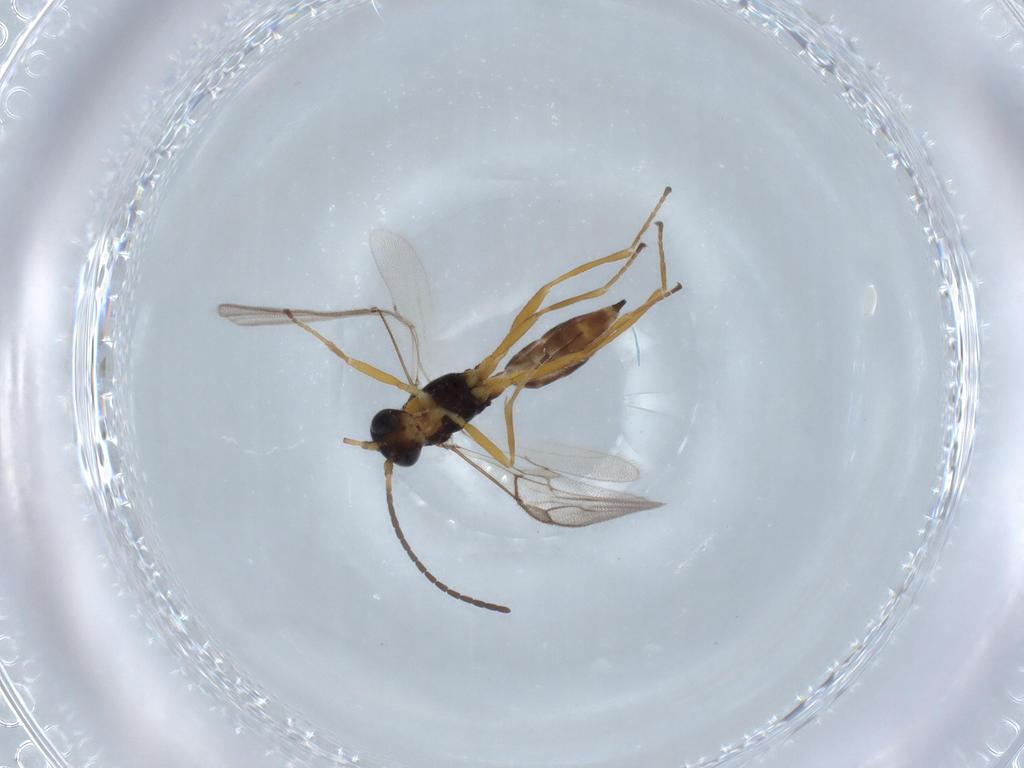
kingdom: Animalia
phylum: Arthropoda
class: Insecta
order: Hymenoptera
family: Braconidae
